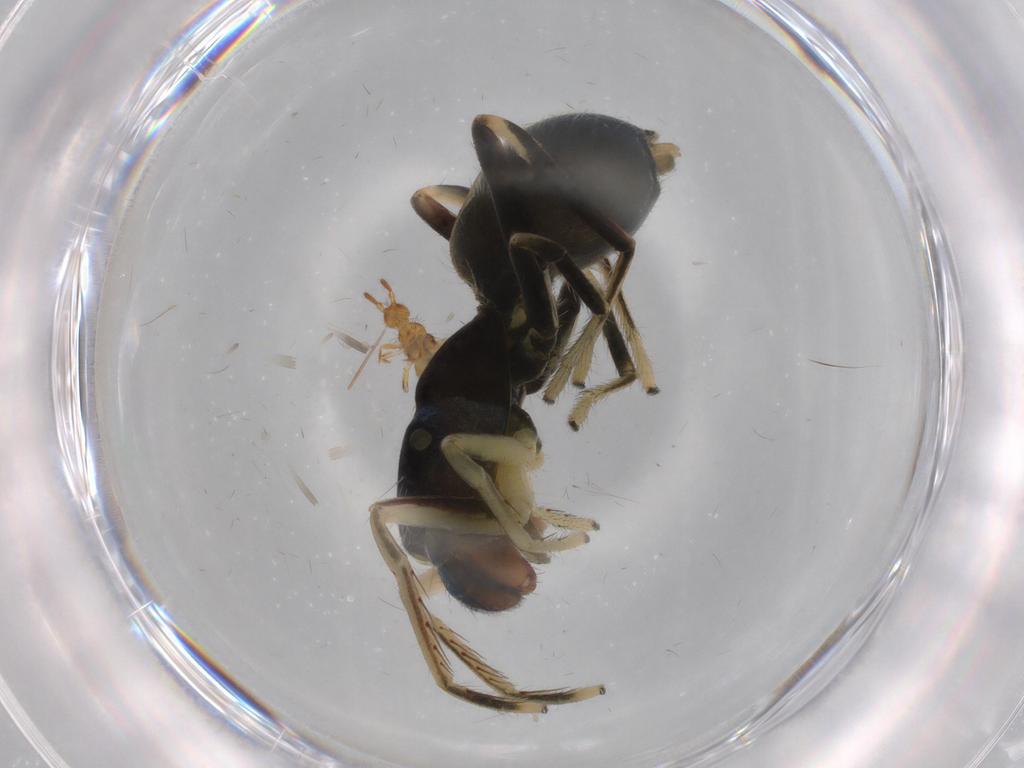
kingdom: Animalia
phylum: Arthropoda
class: Collembola
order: Entomobryomorpha
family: Entomobryidae
